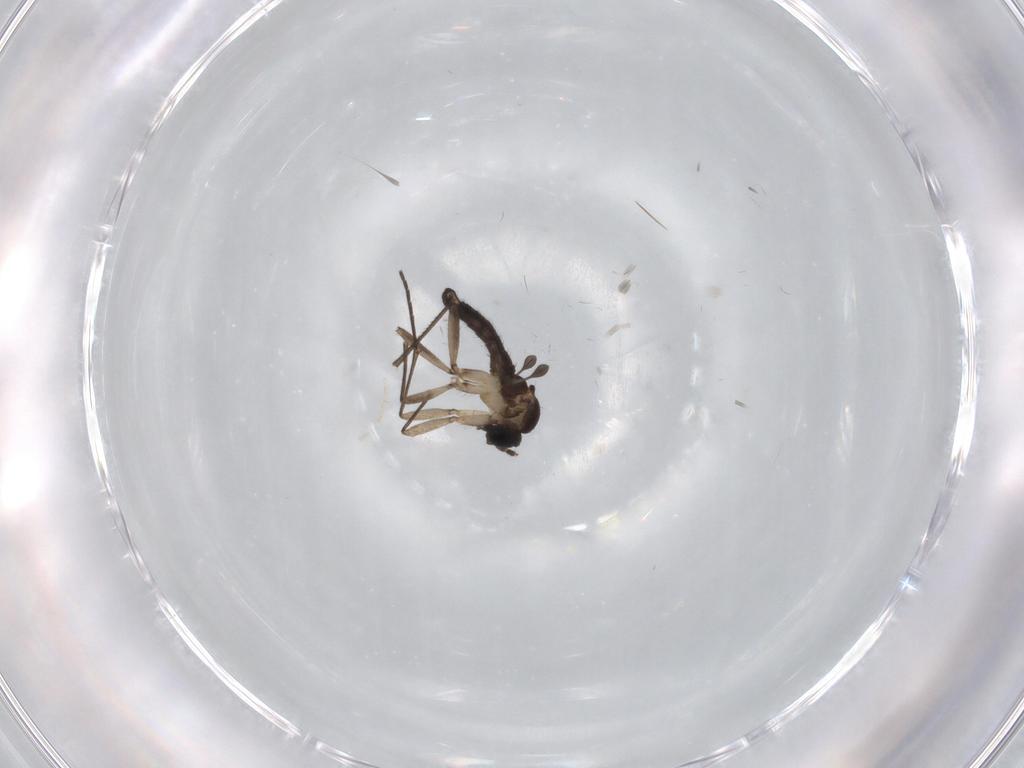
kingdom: Animalia
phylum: Arthropoda
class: Insecta
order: Diptera
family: Sciaridae
